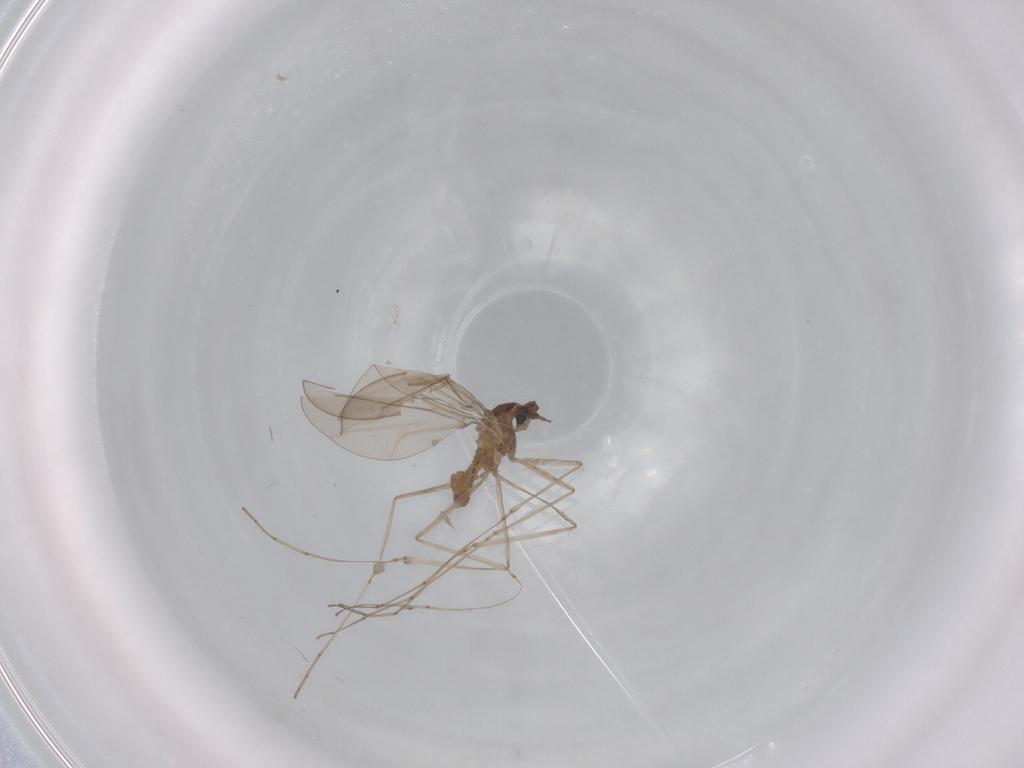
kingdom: Animalia
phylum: Arthropoda
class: Insecta
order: Diptera
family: Cecidomyiidae
